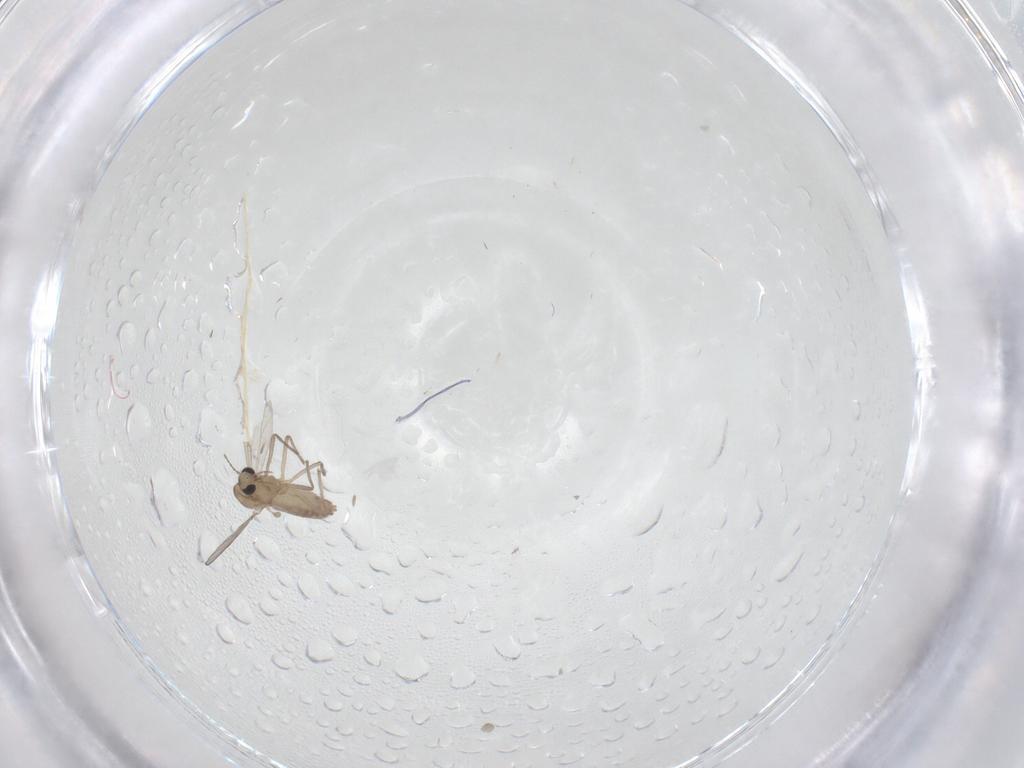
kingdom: Animalia
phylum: Arthropoda
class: Insecta
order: Diptera
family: Chironomidae
